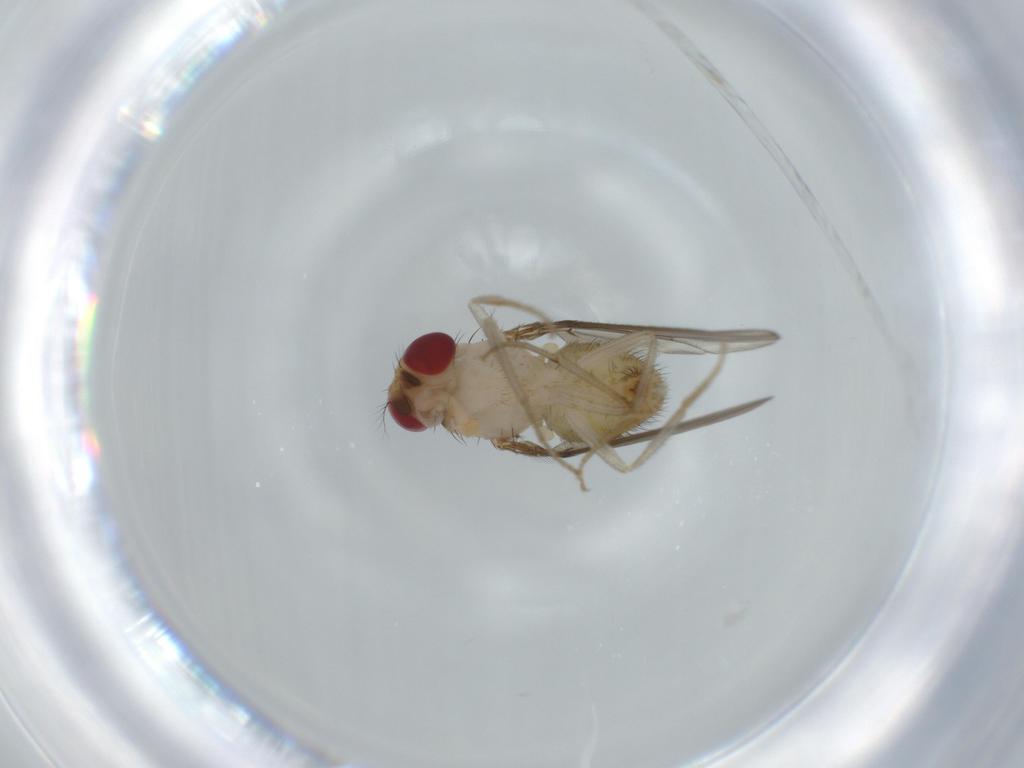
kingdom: Animalia
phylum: Arthropoda
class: Insecta
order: Diptera
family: Drosophilidae
